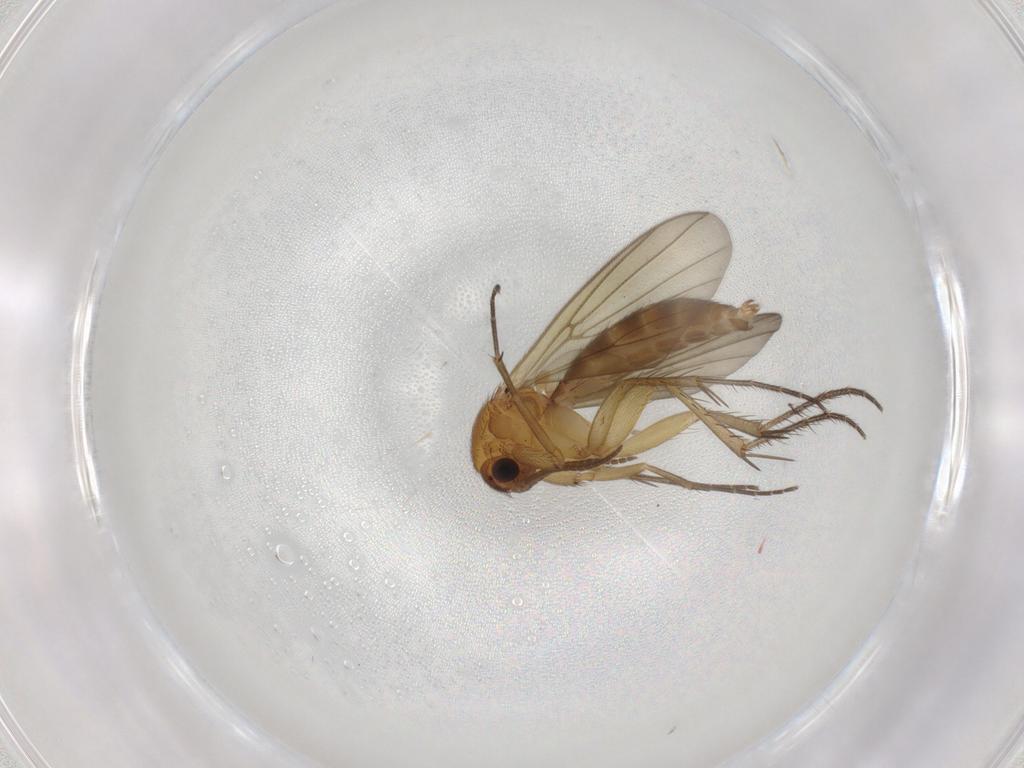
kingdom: Animalia
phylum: Arthropoda
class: Insecta
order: Diptera
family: Mycetophilidae
